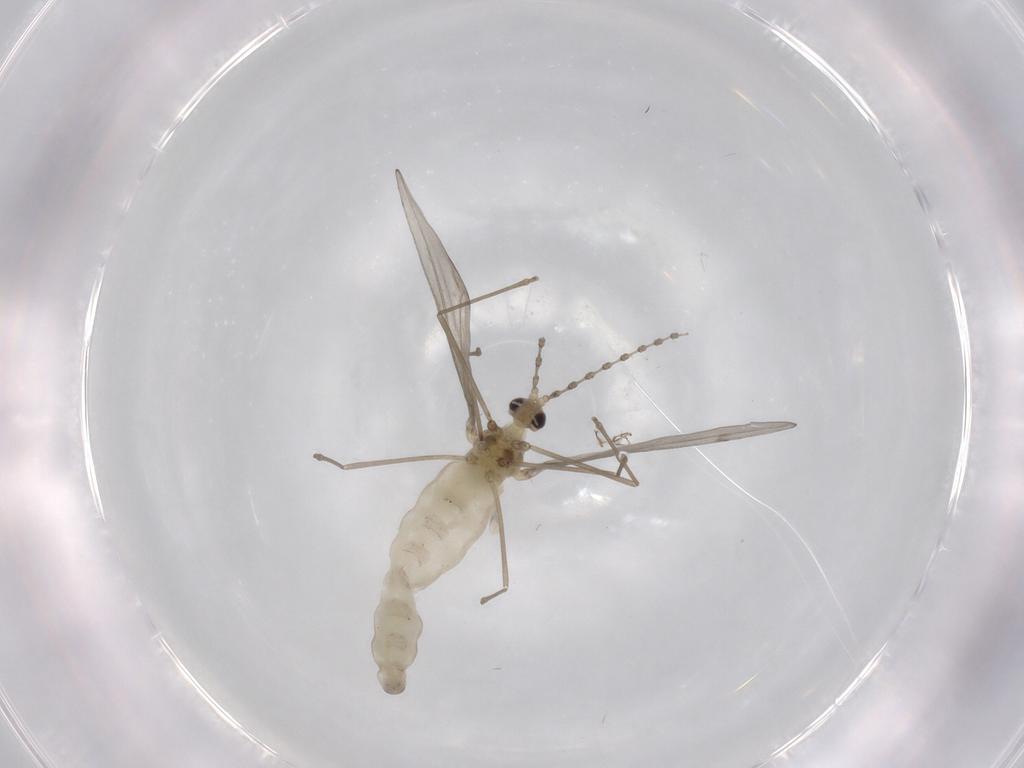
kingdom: Animalia
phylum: Arthropoda
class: Insecta
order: Diptera
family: Cecidomyiidae
